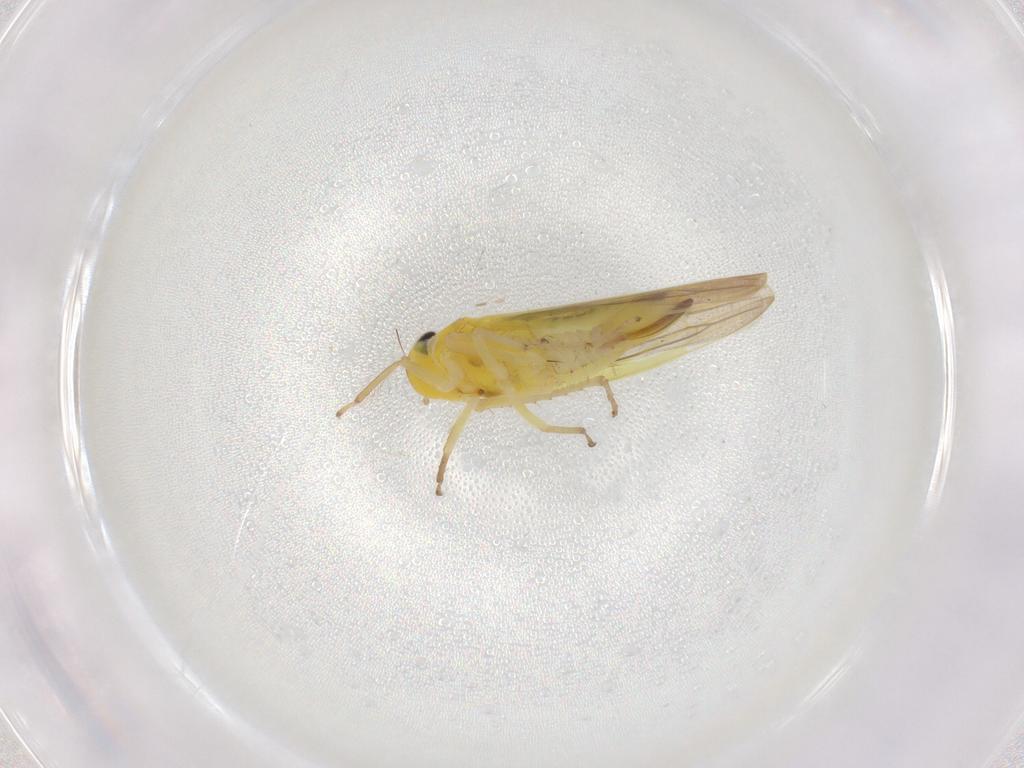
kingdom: Animalia
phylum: Arthropoda
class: Insecta
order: Hemiptera
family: Cicadellidae
